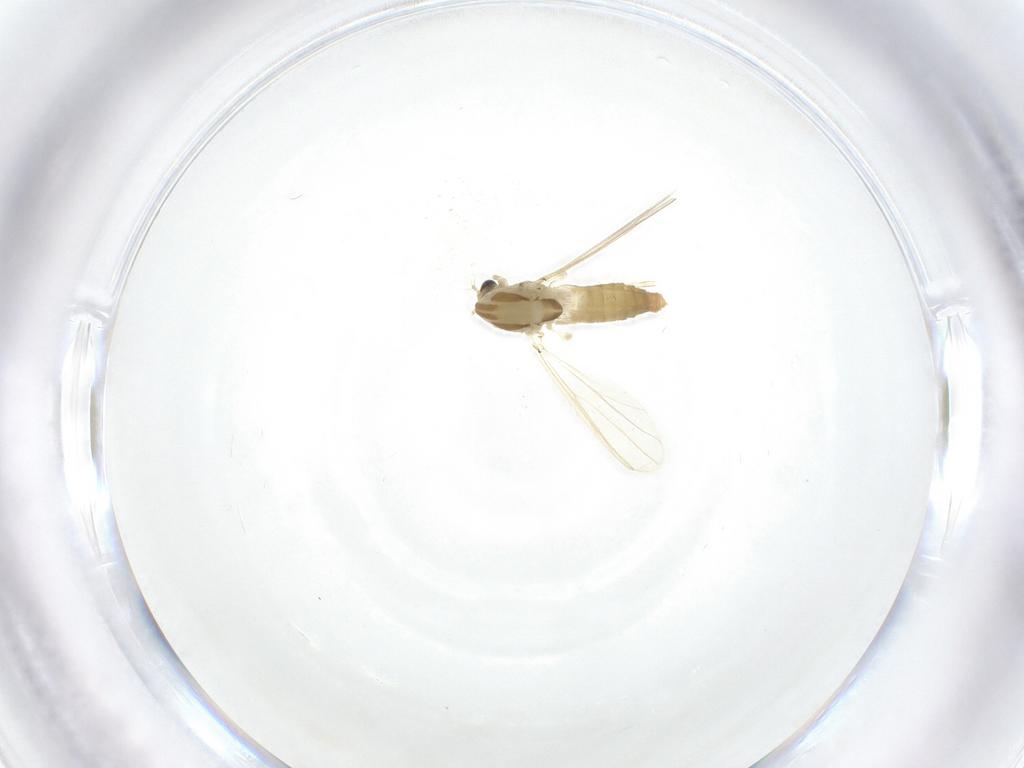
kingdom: Animalia
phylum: Arthropoda
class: Insecta
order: Diptera
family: Chironomidae
